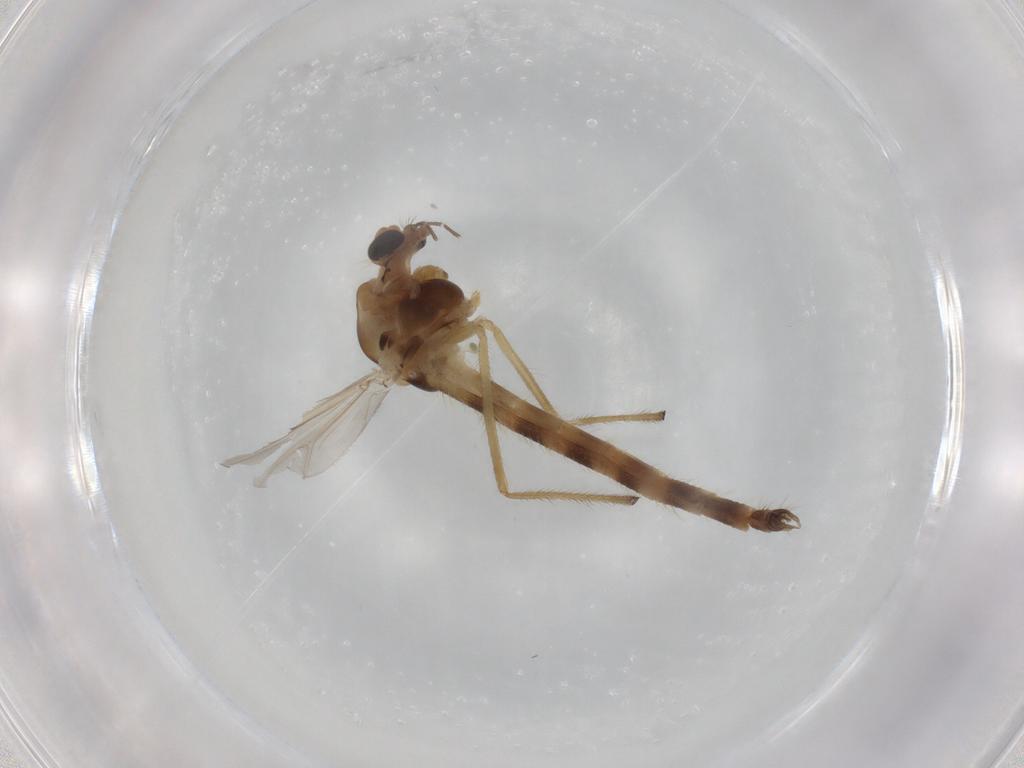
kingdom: Animalia
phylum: Arthropoda
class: Insecta
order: Diptera
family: Chironomidae
